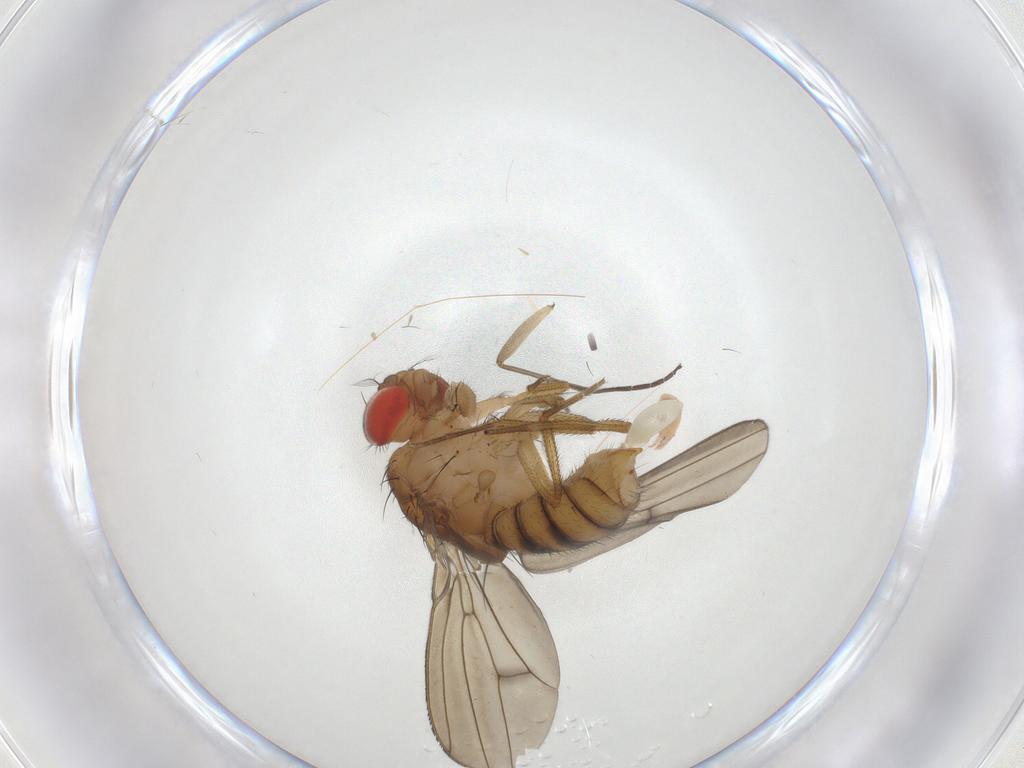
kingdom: Animalia
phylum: Arthropoda
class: Insecta
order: Diptera
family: Drosophilidae
